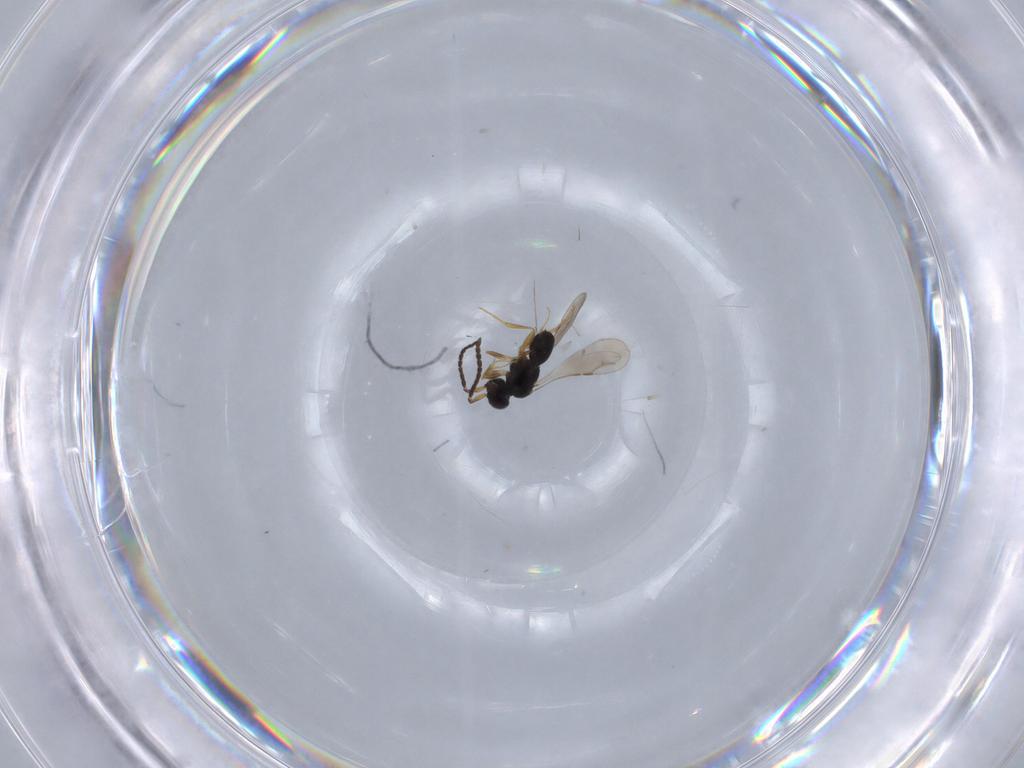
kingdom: Animalia
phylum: Arthropoda
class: Insecta
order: Hymenoptera
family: Ceraphronidae
